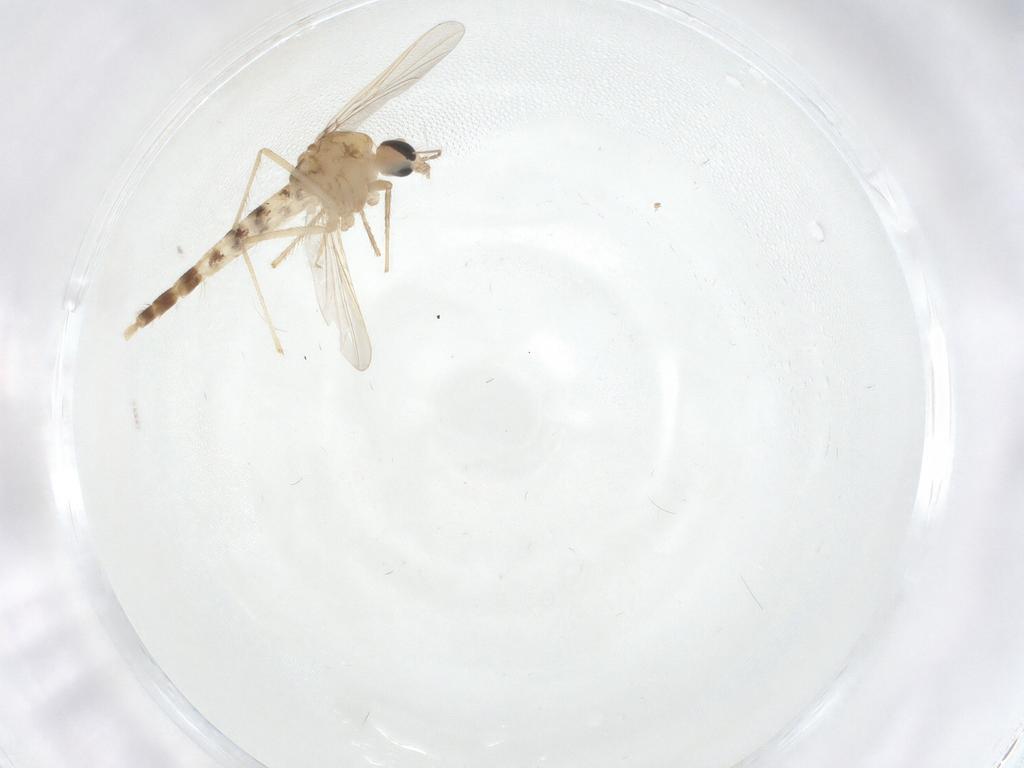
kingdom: Animalia
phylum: Arthropoda
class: Insecta
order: Diptera
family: Chironomidae
